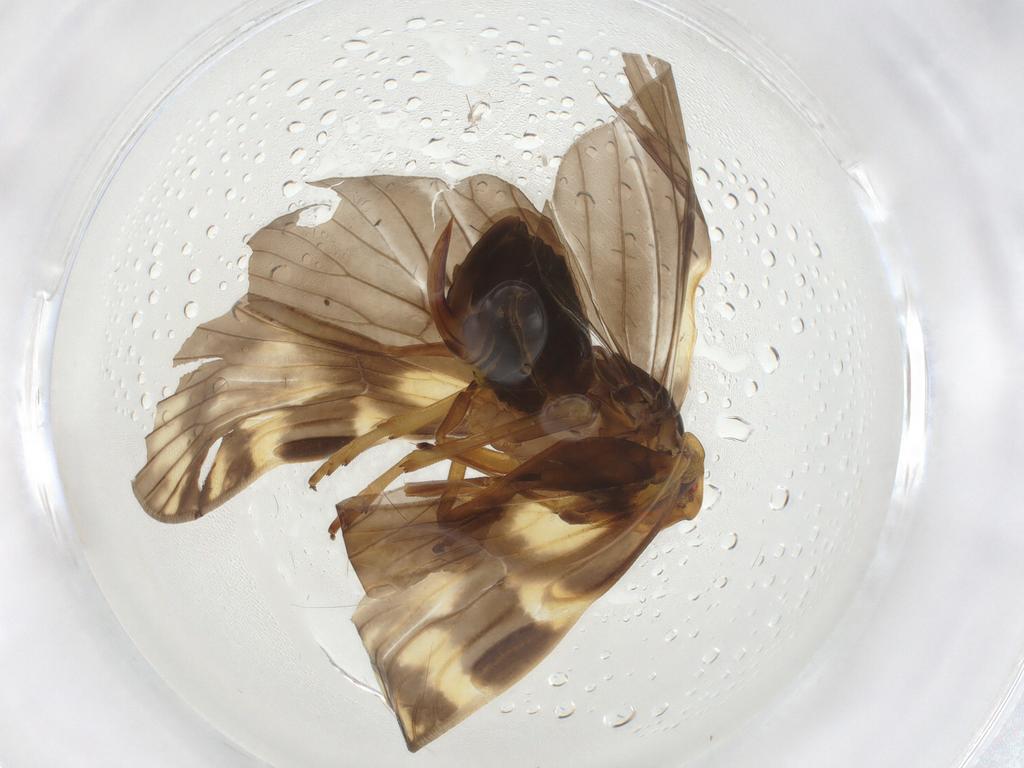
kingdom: Animalia
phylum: Arthropoda
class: Insecta
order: Hemiptera
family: Cixiidae
